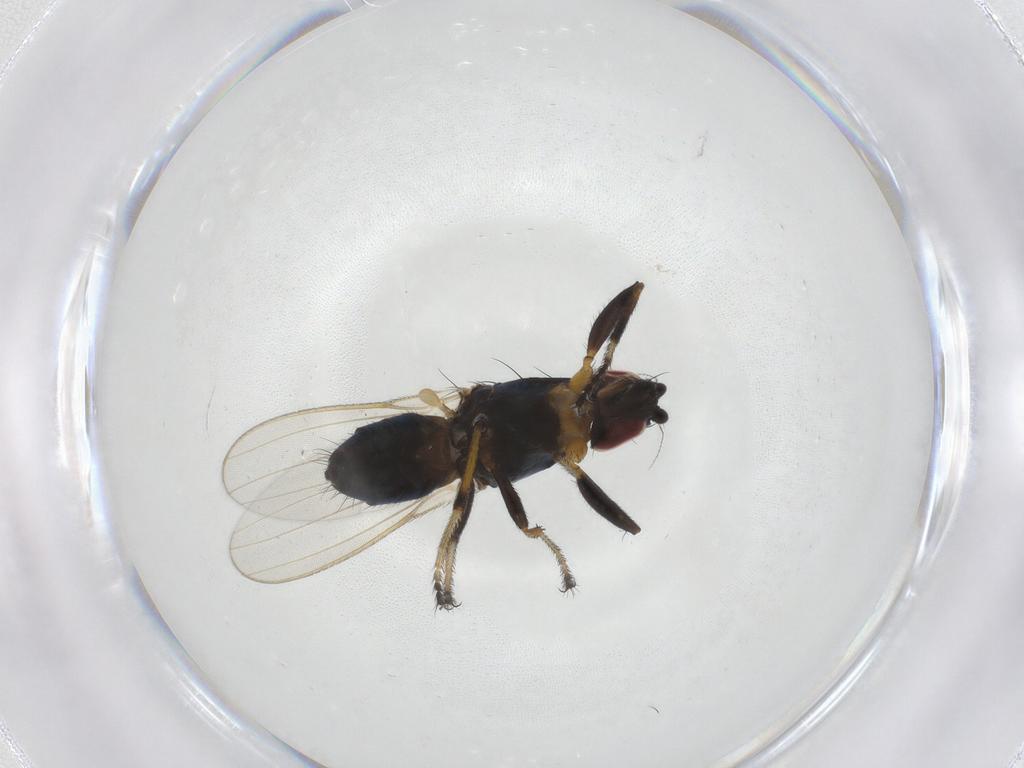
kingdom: Animalia
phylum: Arthropoda
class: Insecta
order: Diptera
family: Milichiidae
